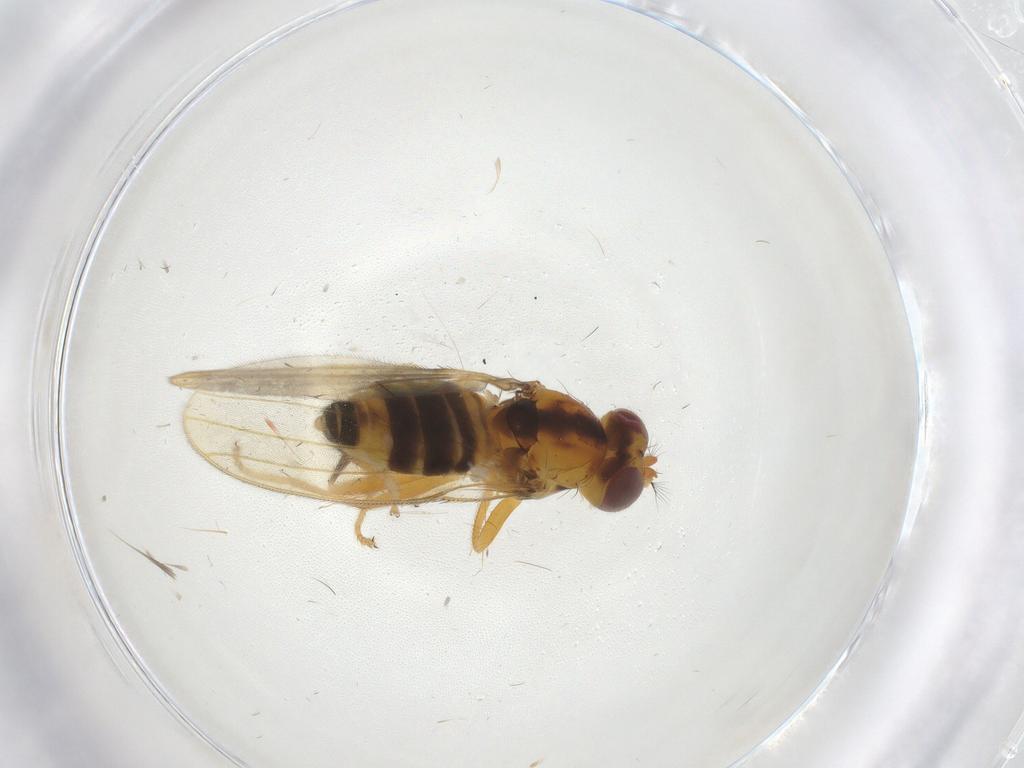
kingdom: Animalia
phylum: Arthropoda
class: Insecta
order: Diptera
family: Periscelididae
